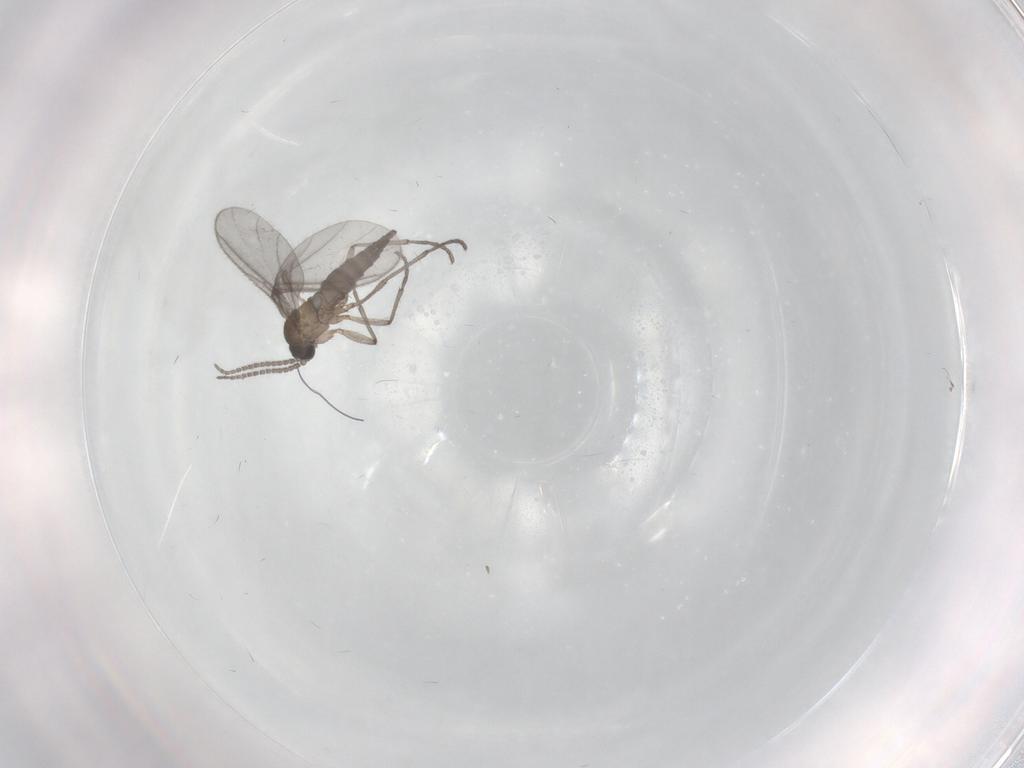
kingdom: Animalia
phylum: Arthropoda
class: Insecta
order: Diptera
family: Sciaridae
